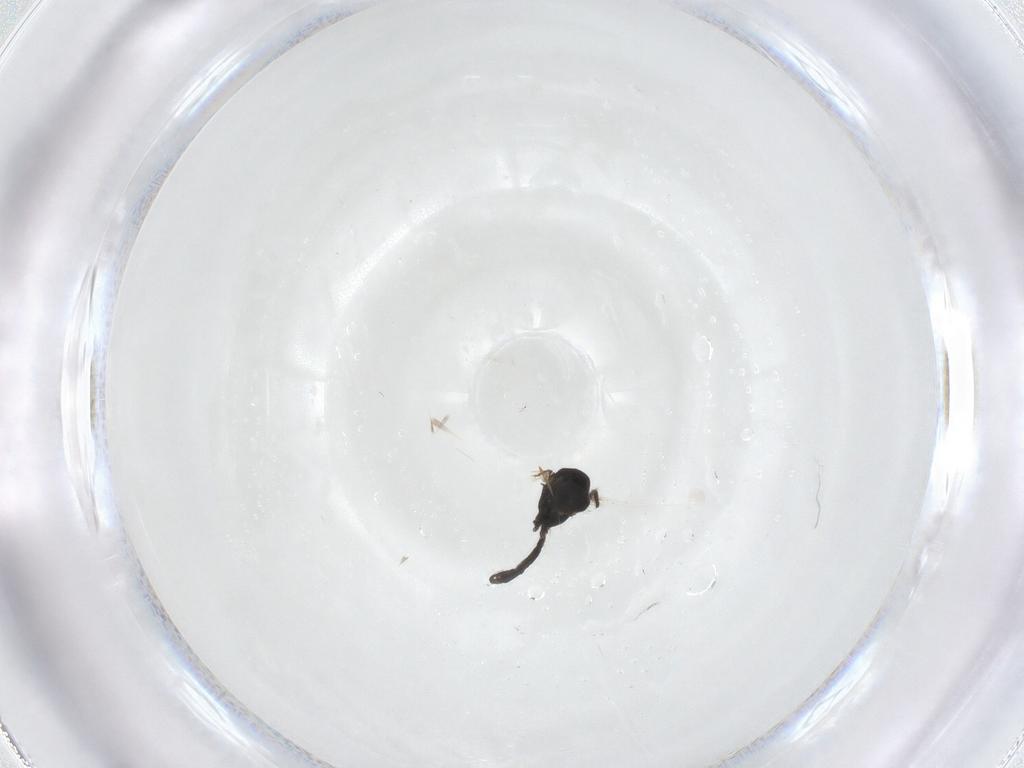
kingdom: Animalia
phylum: Arthropoda
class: Insecta
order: Diptera
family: Chironomidae
